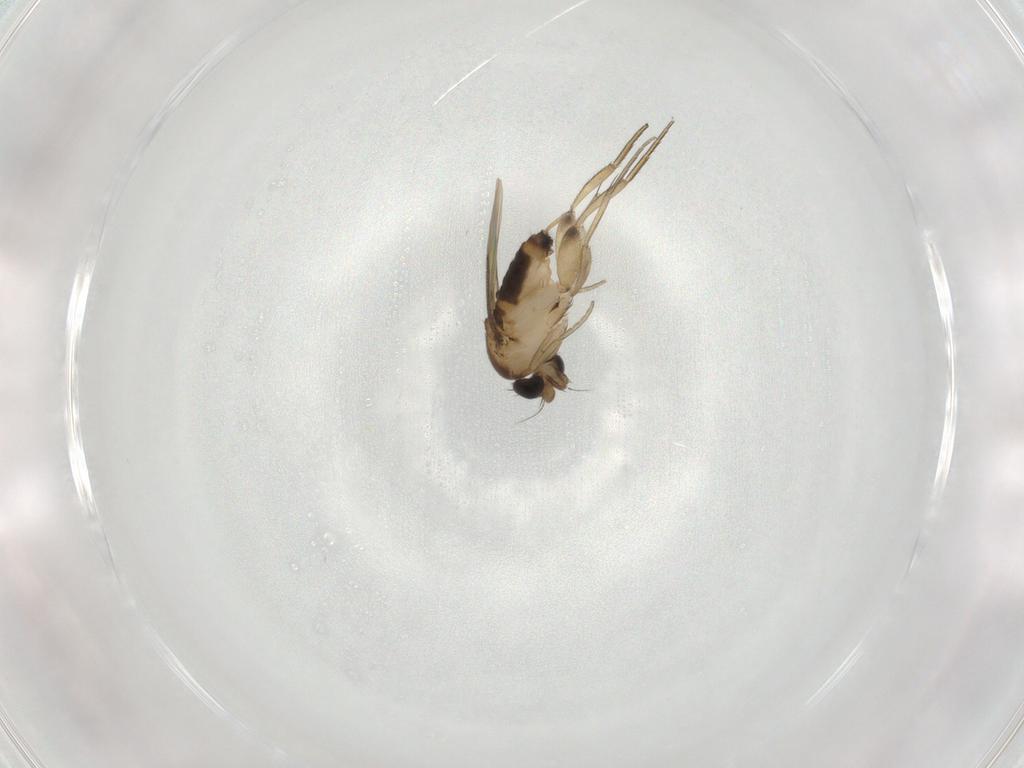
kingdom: Animalia
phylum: Arthropoda
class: Insecta
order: Diptera
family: Phoridae
